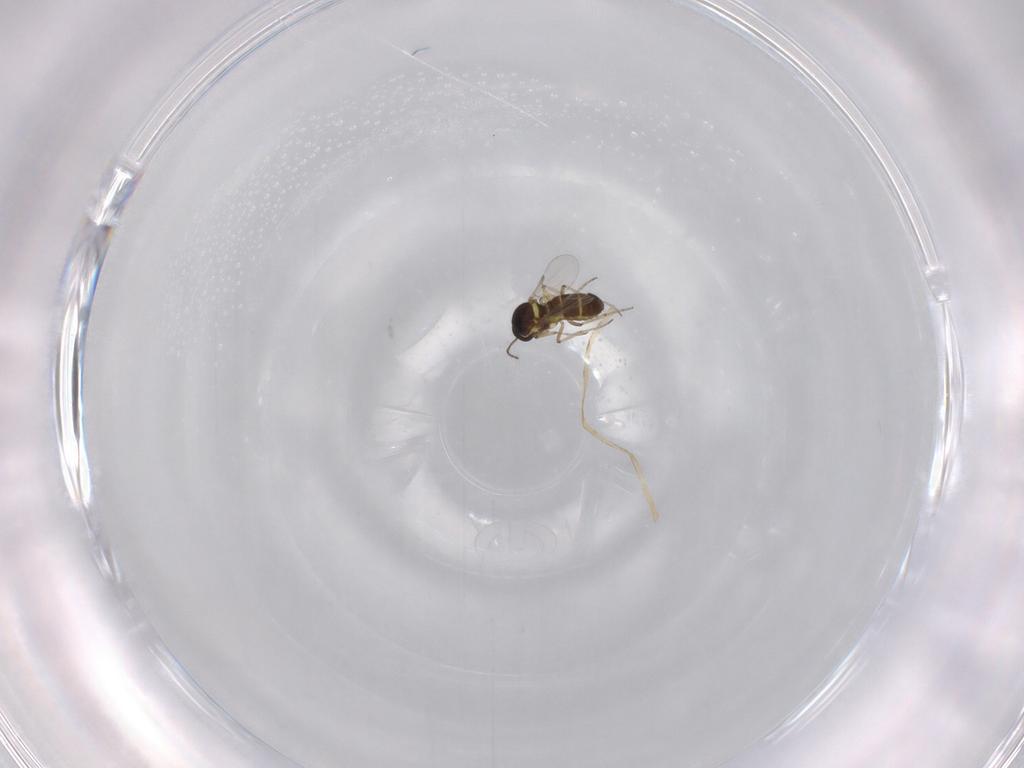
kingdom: Animalia
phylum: Arthropoda
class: Insecta
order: Diptera
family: Ceratopogonidae
